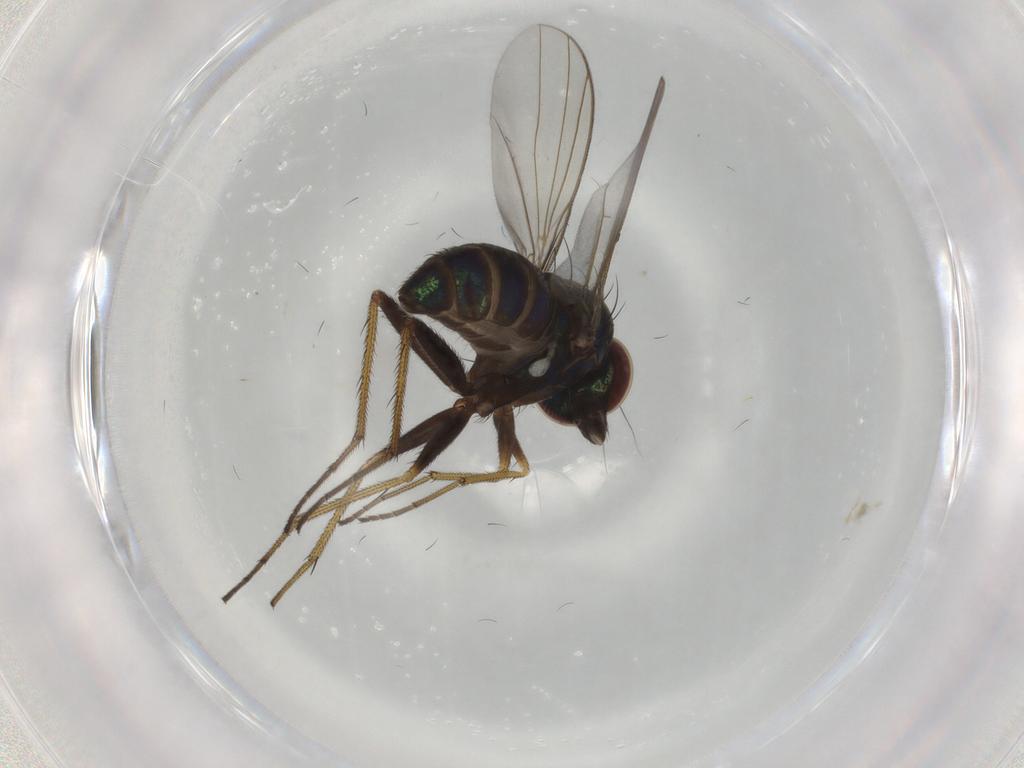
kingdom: Animalia
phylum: Arthropoda
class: Insecta
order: Diptera
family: Dolichopodidae
